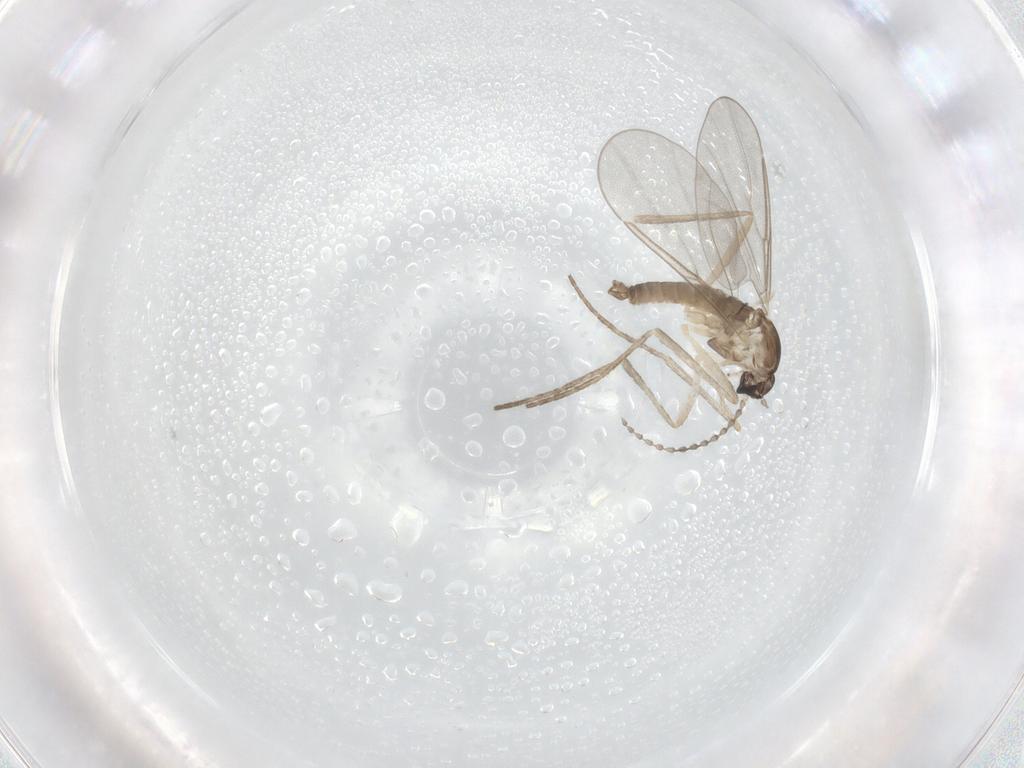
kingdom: Animalia
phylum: Arthropoda
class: Insecta
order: Diptera
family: Cecidomyiidae
